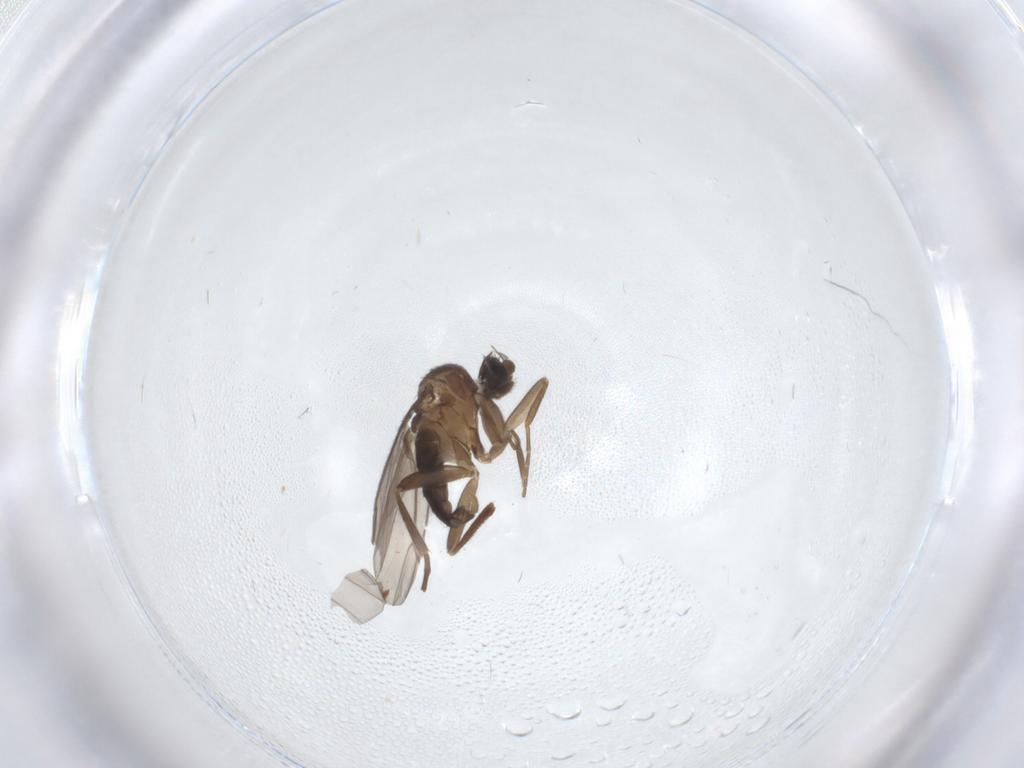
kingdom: Animalia
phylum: Arthropoda
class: Insecta
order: Diptera
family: Phoridae
